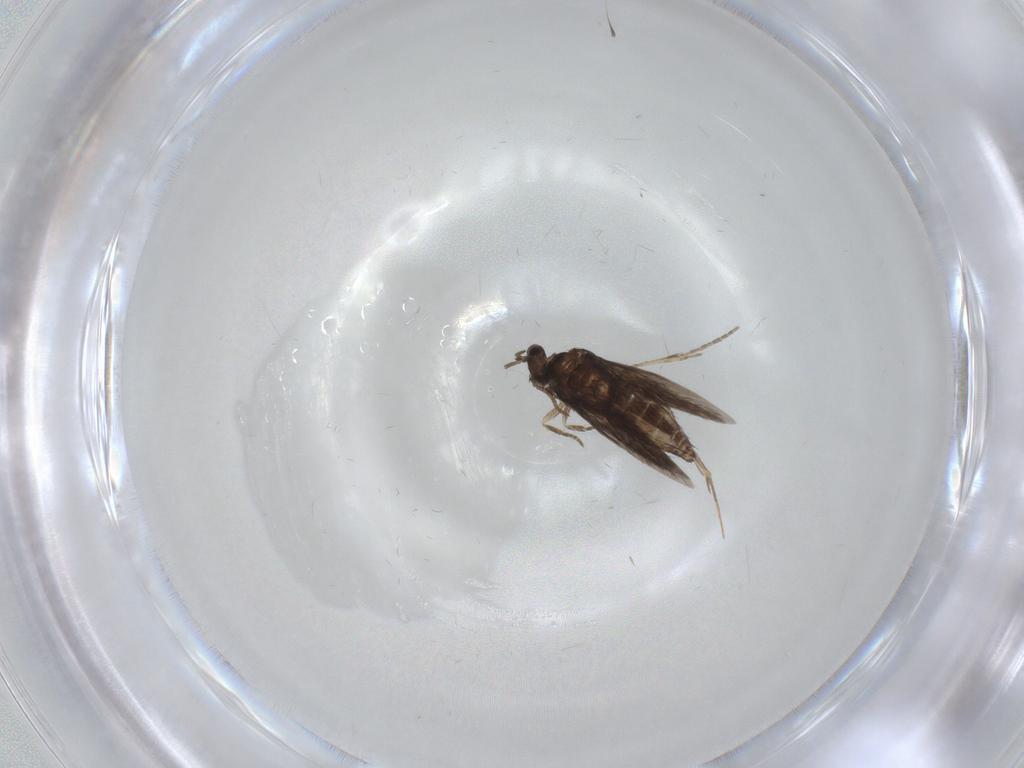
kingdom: Animalia
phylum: Arthropoda
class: Insecta
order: Trichoptera
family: Hydroptilidae
